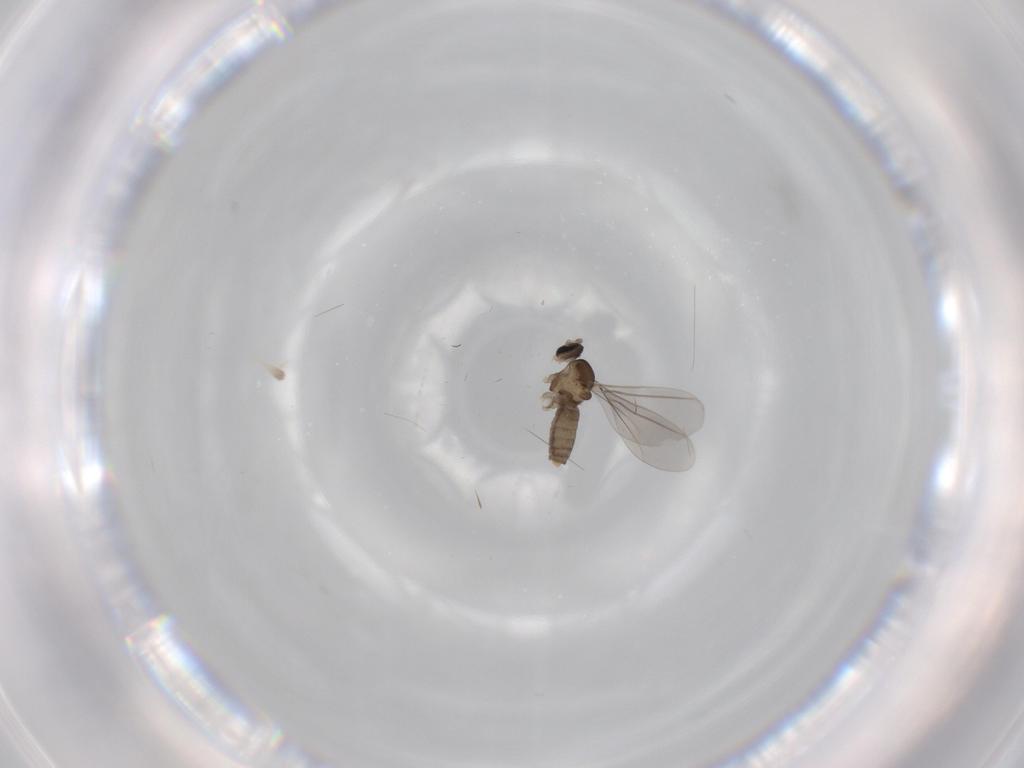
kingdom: Animalia
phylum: Arthropoda
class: Insecta
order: Diptera
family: Cecidomyiidae
